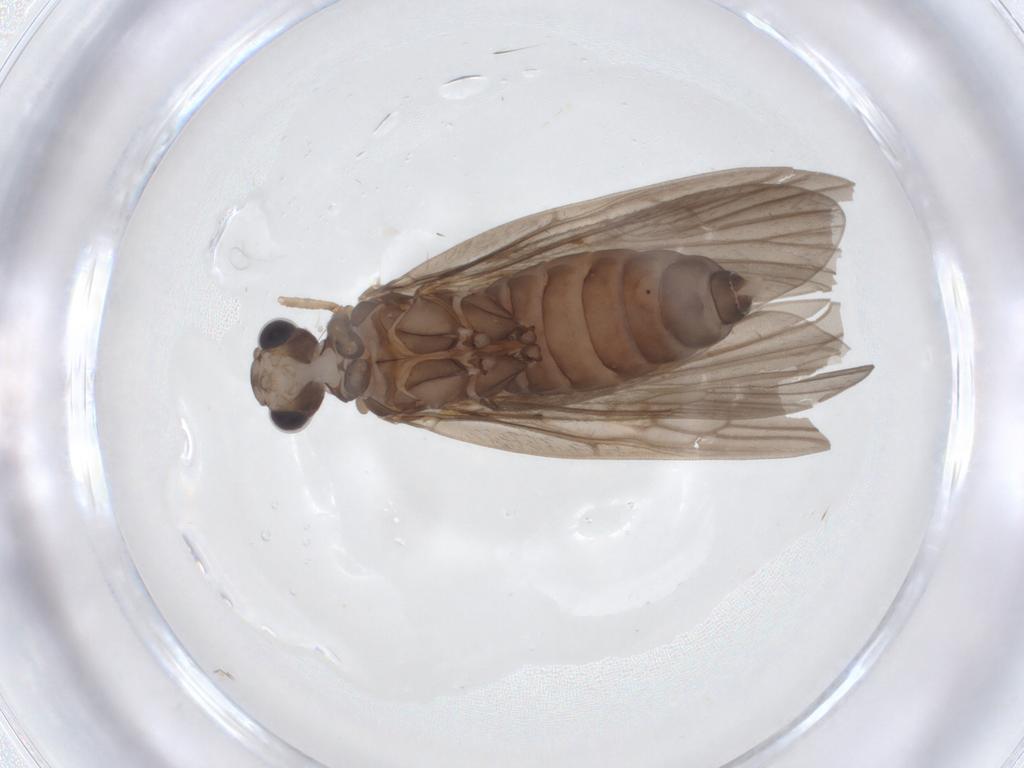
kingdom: Animalia
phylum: Arthropoda
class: Insecta
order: Trichoptera
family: Philopotamidae
